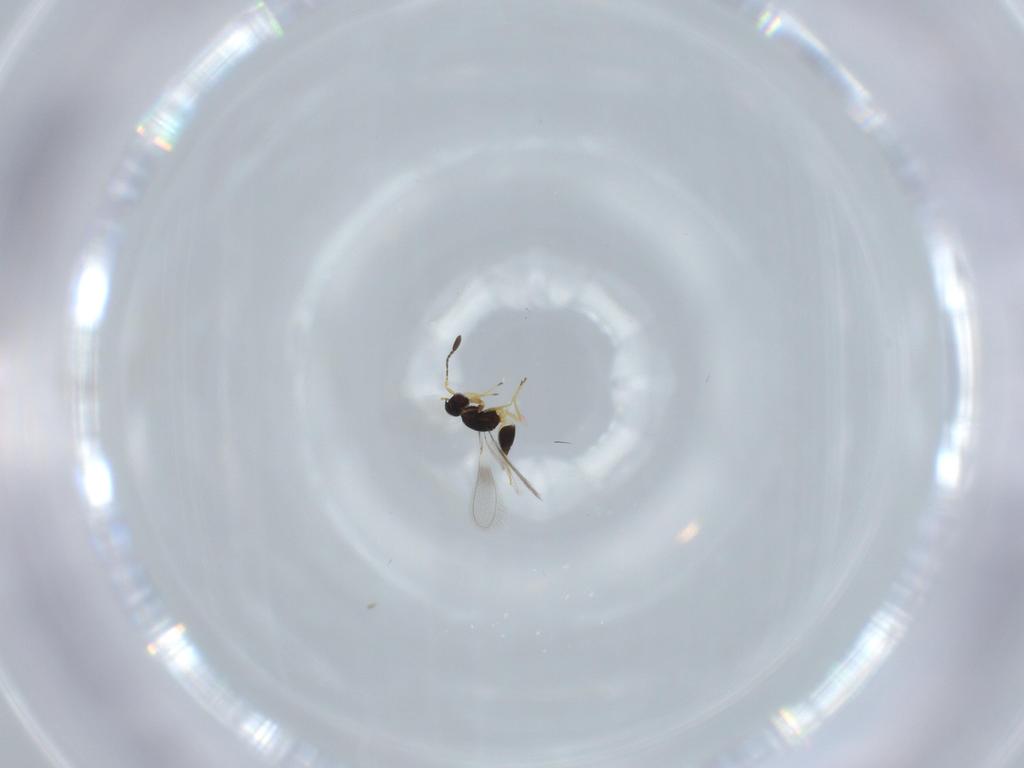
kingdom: Animalia
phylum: Arthropoda
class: Insecta
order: Hymenoptera
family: Mymaridae
